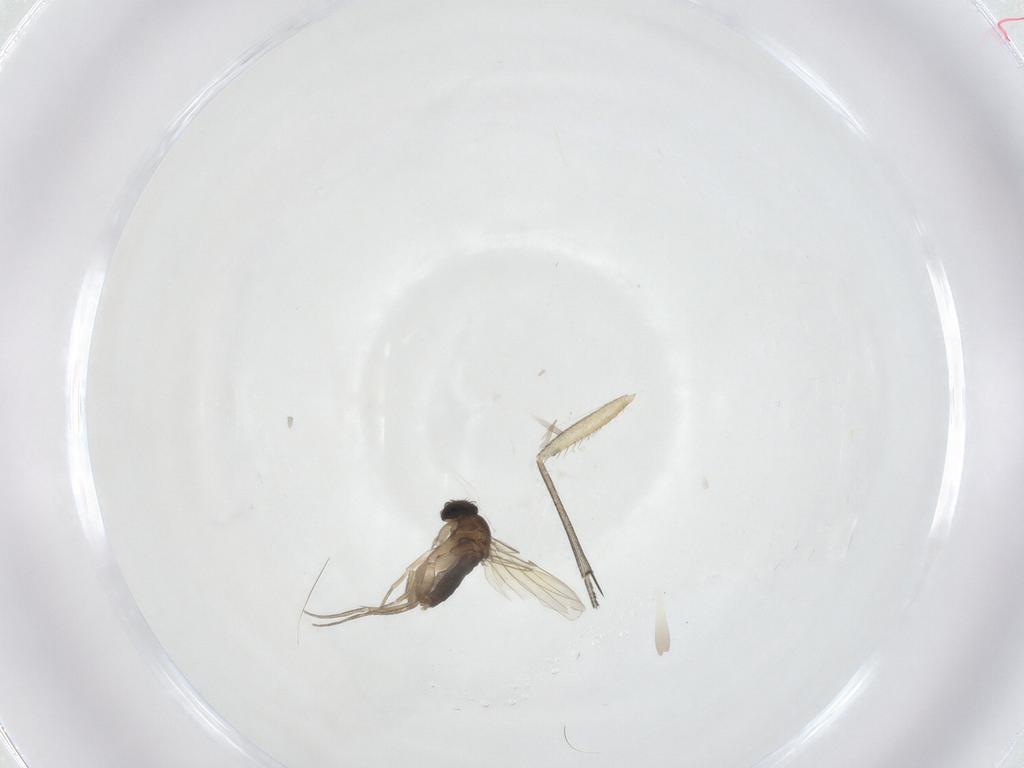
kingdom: Animalia
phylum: Arthropoda
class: Insecta
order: Diptera
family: Keroplatidae
